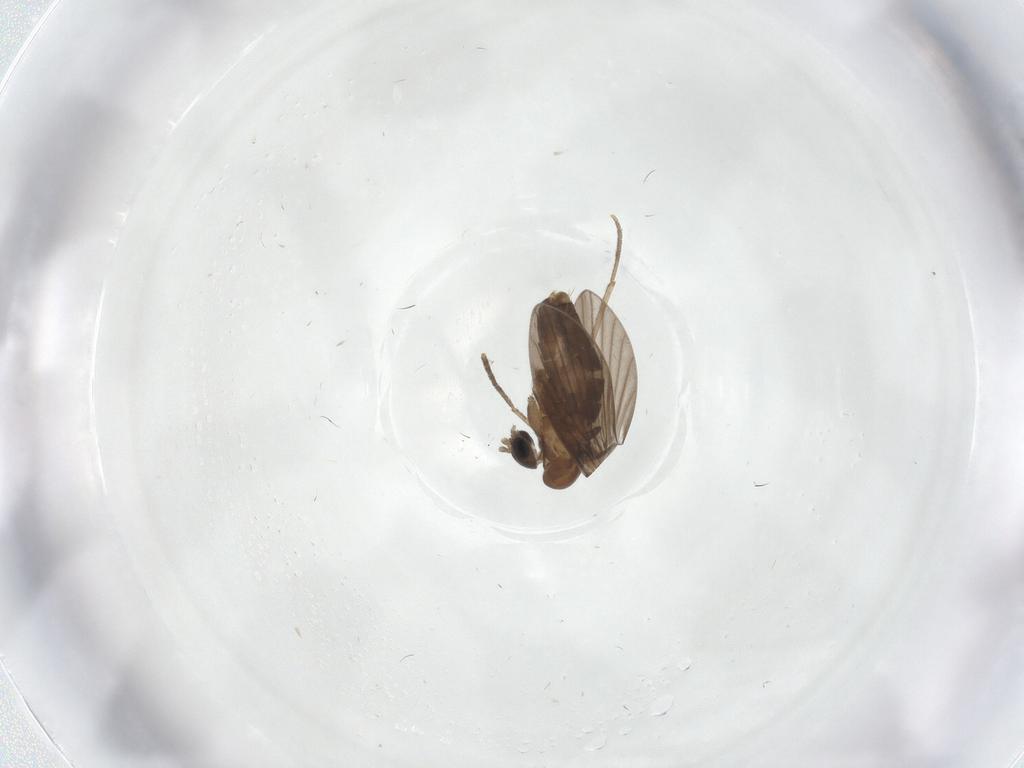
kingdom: Animalia
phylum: Arthropoda
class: Insecta
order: Diptera
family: Psychodidae
